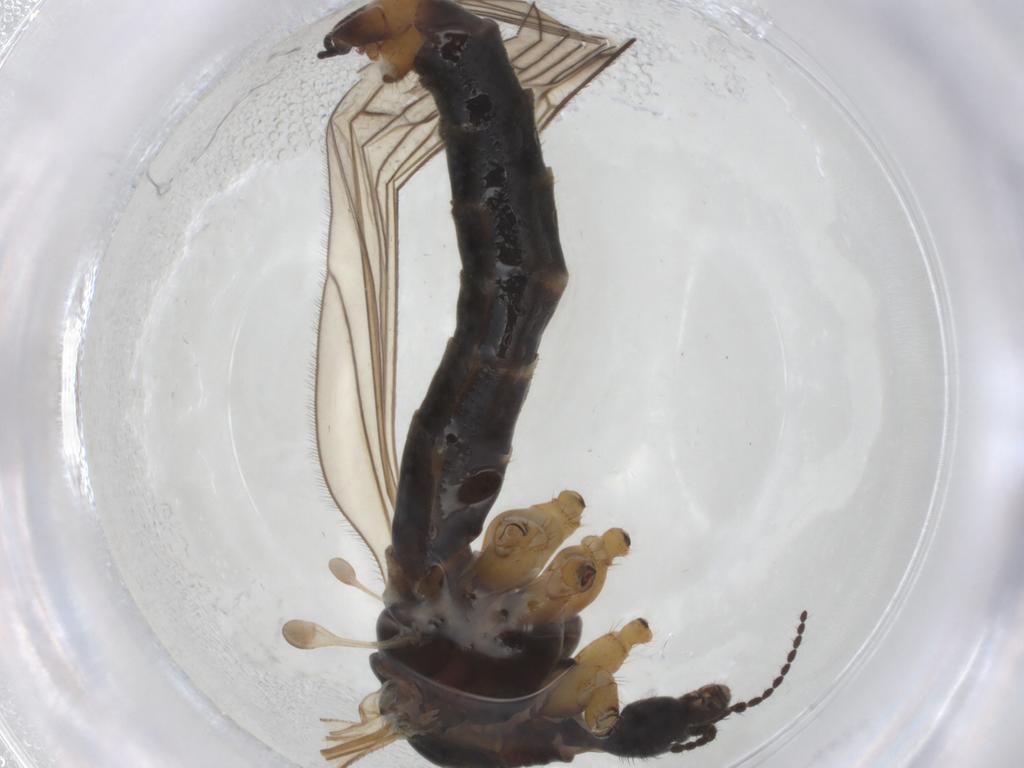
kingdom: Animalia
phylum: Arthropoda
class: Insecta
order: Diptera
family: Limoniidae
